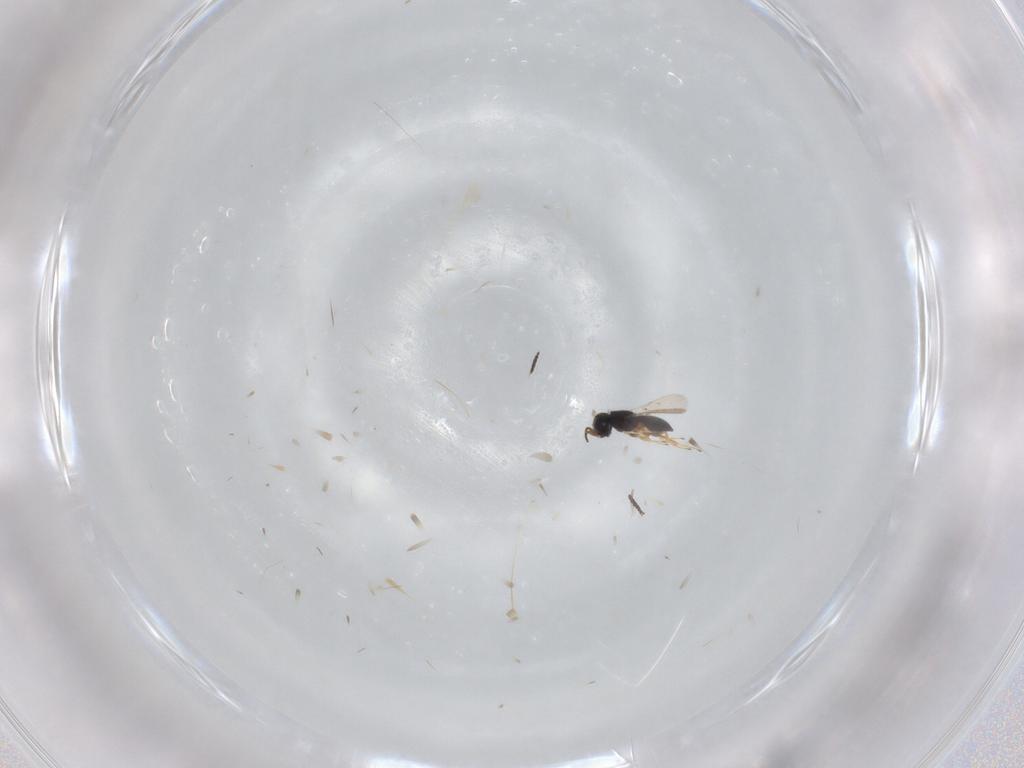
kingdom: Animalia
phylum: Arthropoda
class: Insecta
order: Hymenoptera
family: Scelionidae
